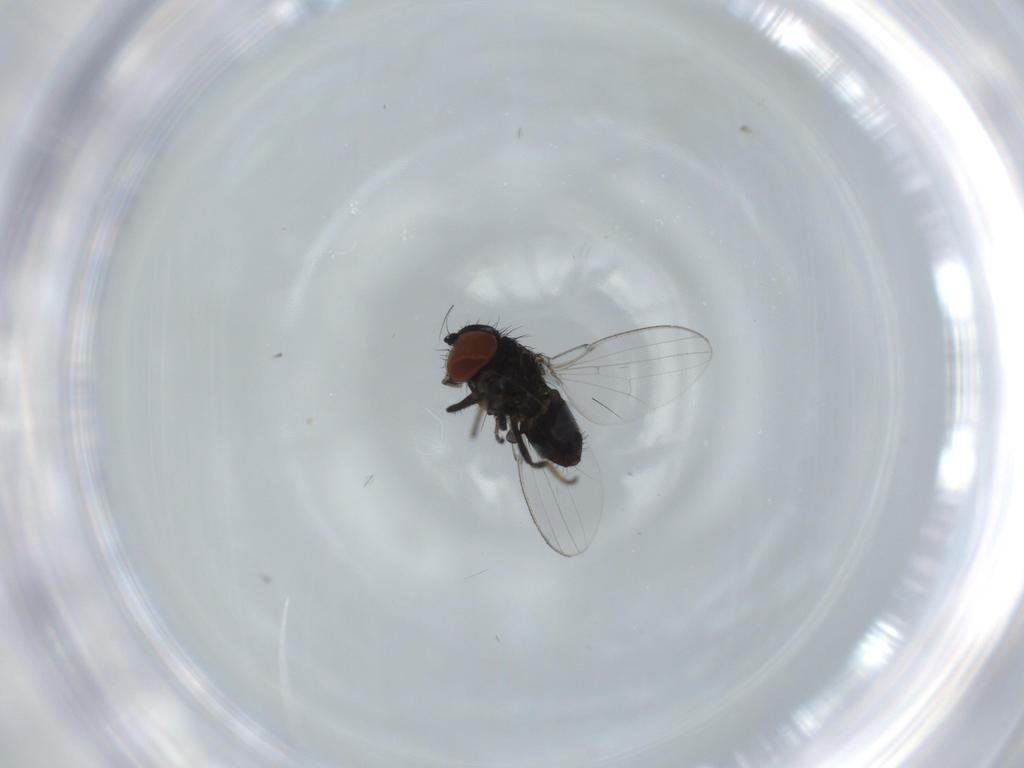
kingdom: Animalia
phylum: Arthropoda
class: Insecta
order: Diptera
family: Milichiidae
